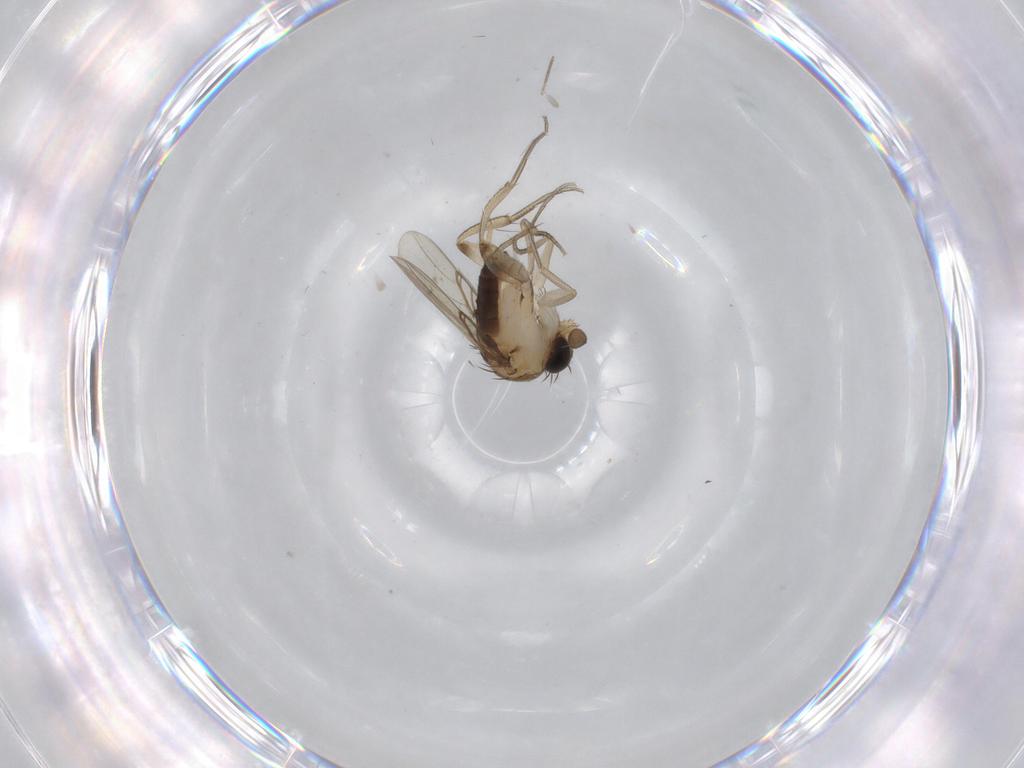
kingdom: Animalia
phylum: Arthropoda
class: Insecta
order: Diptera
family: Phoridae
